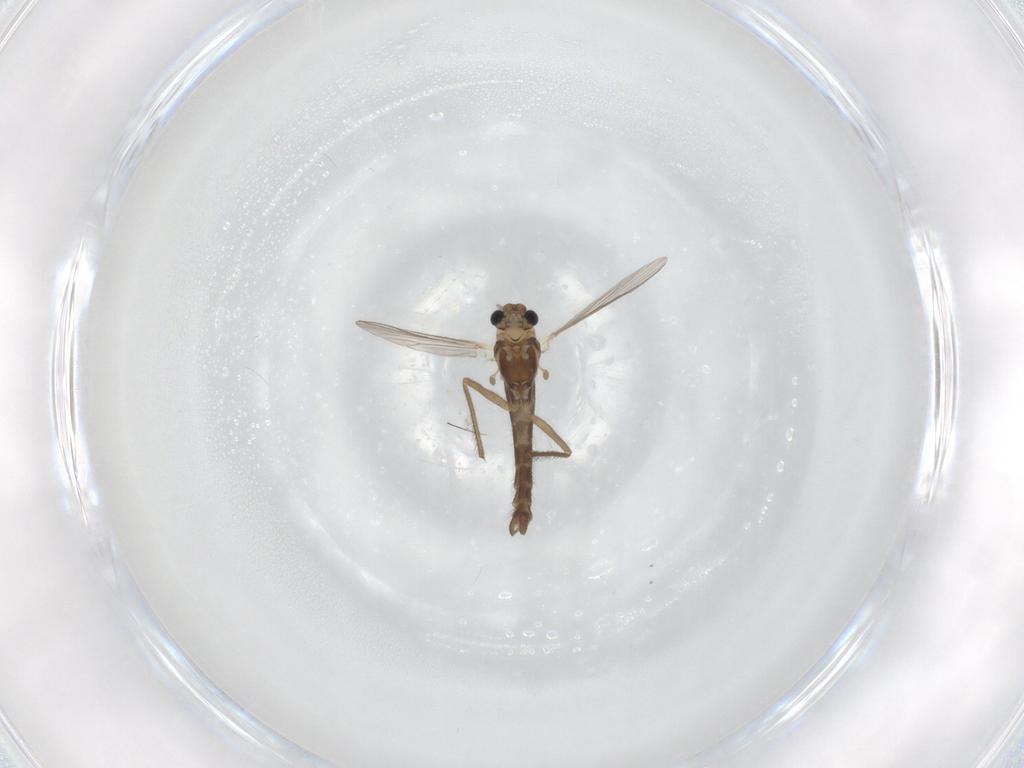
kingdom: Animalia
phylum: Arthropoda
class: Insecta
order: Diptera
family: Chironomidae
